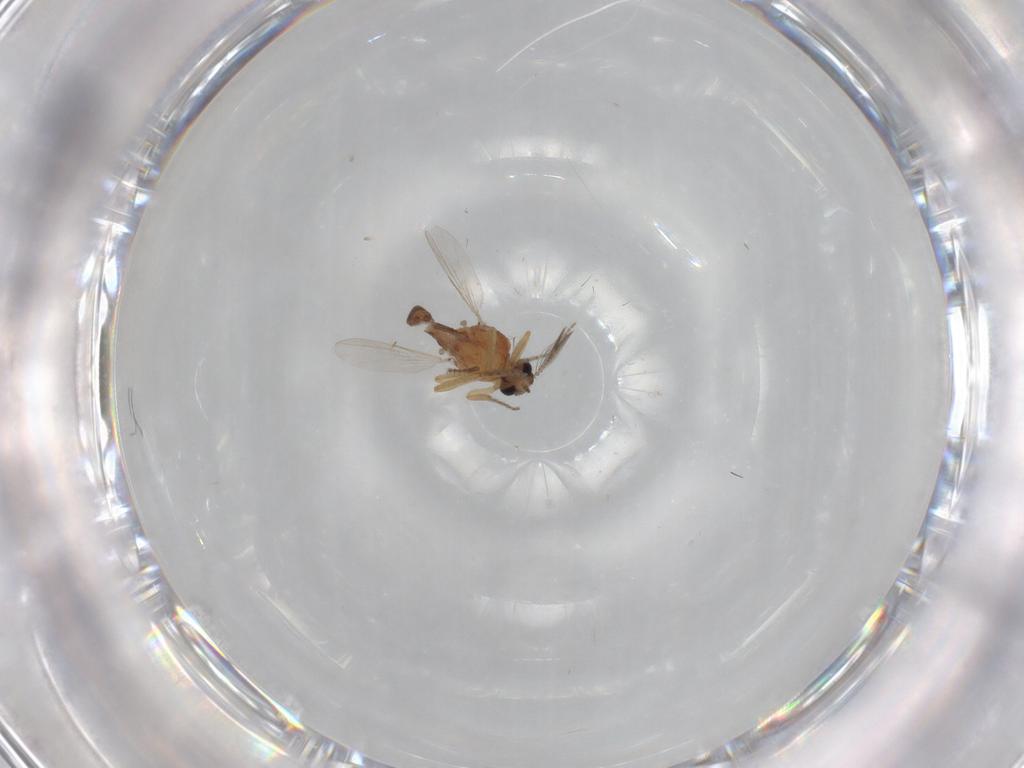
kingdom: Animalia
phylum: Arthropoda
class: Insecta
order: Diptera
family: Ceratopogonidae
